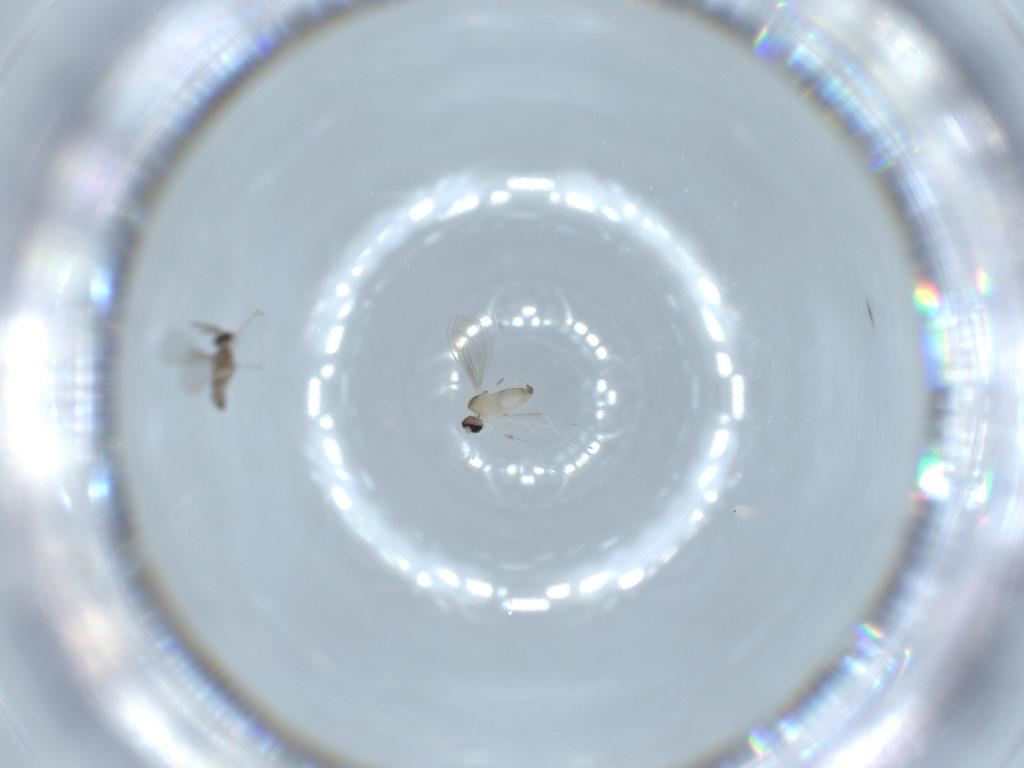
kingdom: Animalia
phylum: Arthropoda
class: Insecta
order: Diptera
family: Cecidomyiidae
